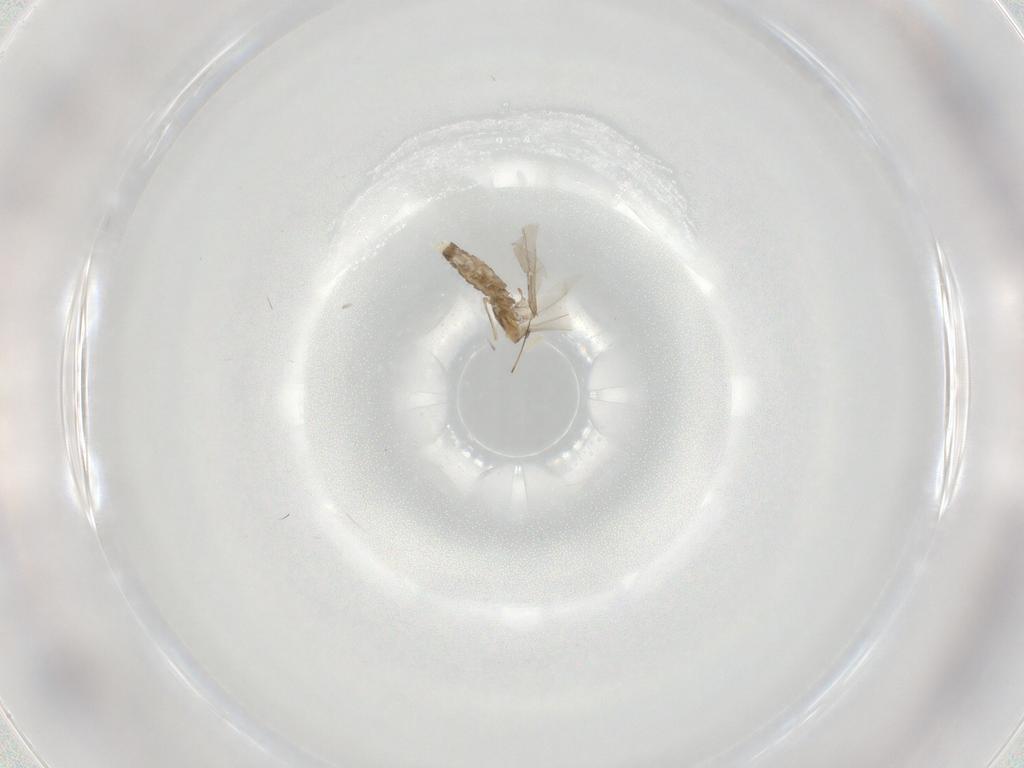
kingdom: Animalia
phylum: Arthropoda
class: Insecta
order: Diptera
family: Cecidomyiidae
